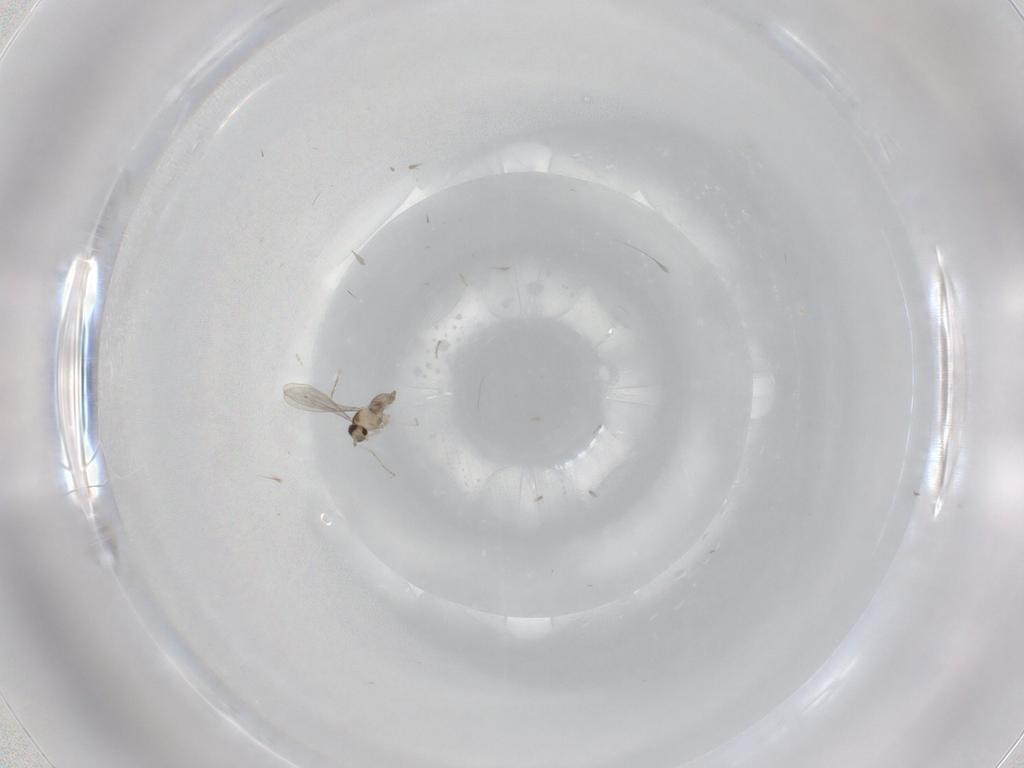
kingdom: Animalia
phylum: Arthropoda
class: Insecta
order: Diptera
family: Cecidomyiidae
